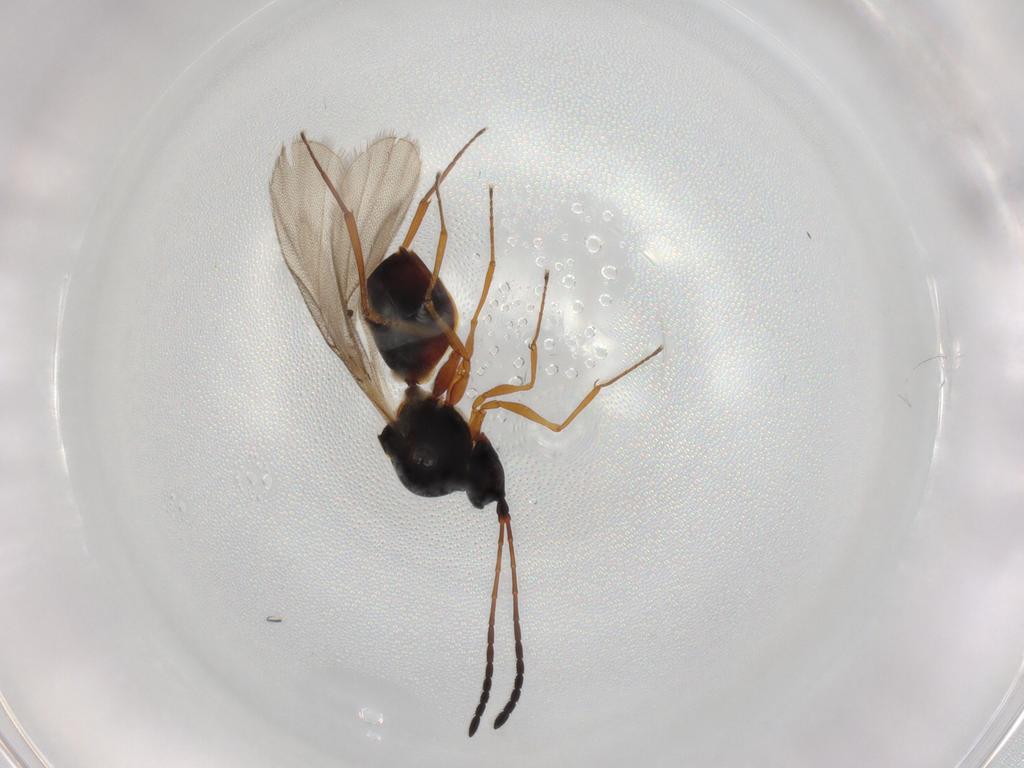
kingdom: Animalia
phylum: Arthropoda
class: Insecta
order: Hymenoptera
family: Figitidae
